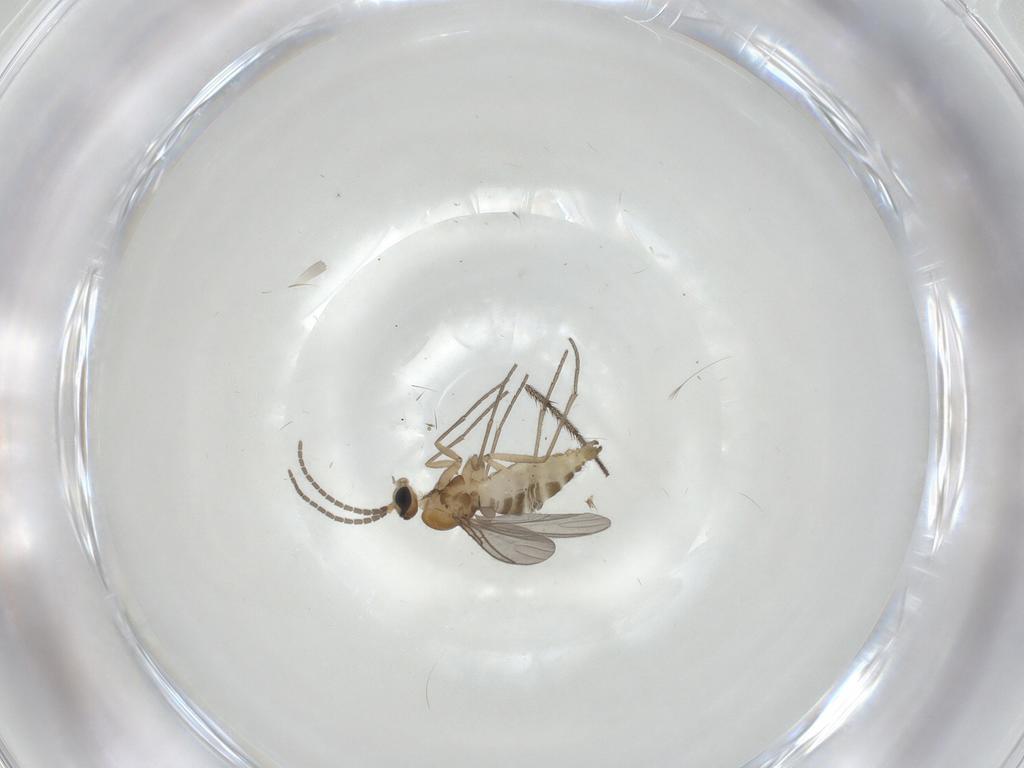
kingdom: Animalia
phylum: Arthropoda
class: Insecta
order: Diptera
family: Sciaridae
